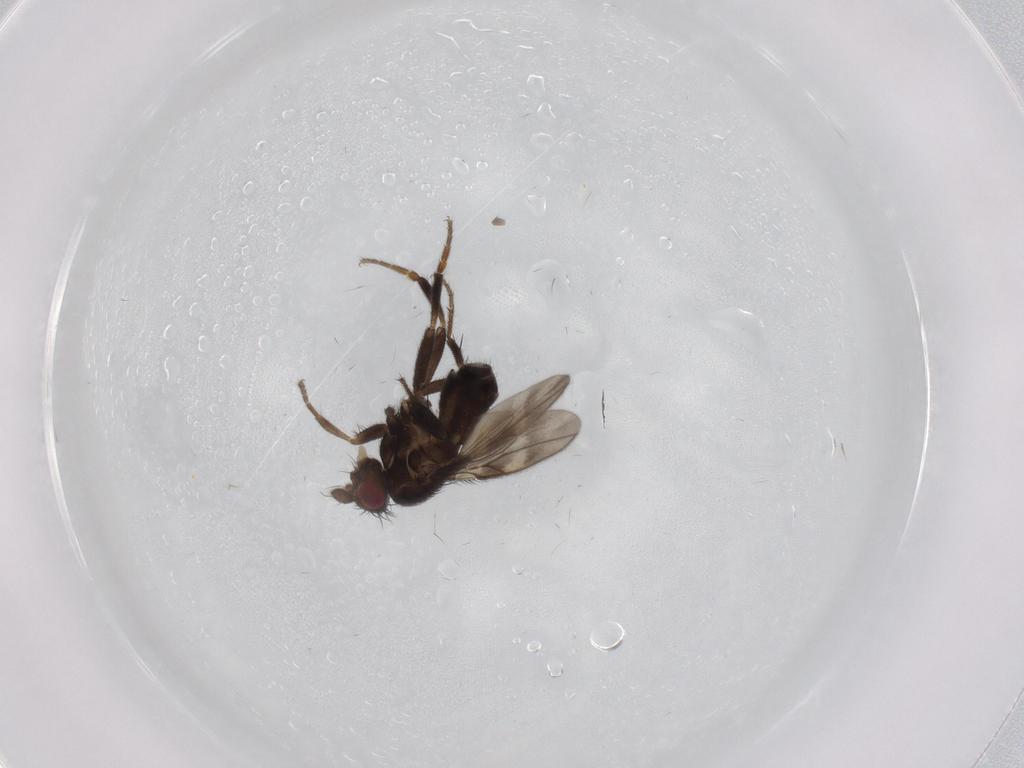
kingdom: Animalia
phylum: Arthropoda
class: Insecta
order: Diptera
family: Sphaeroceridae
